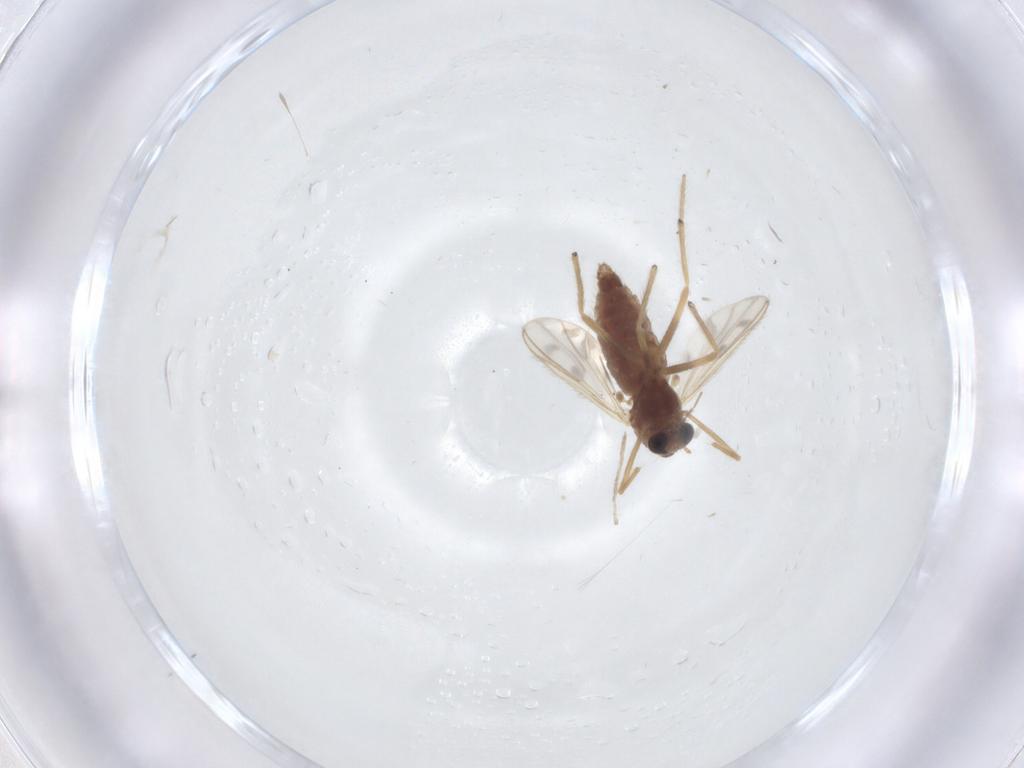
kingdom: Animalia
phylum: Arthropoda
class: Insecta
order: Diptera
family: Chironomidae
